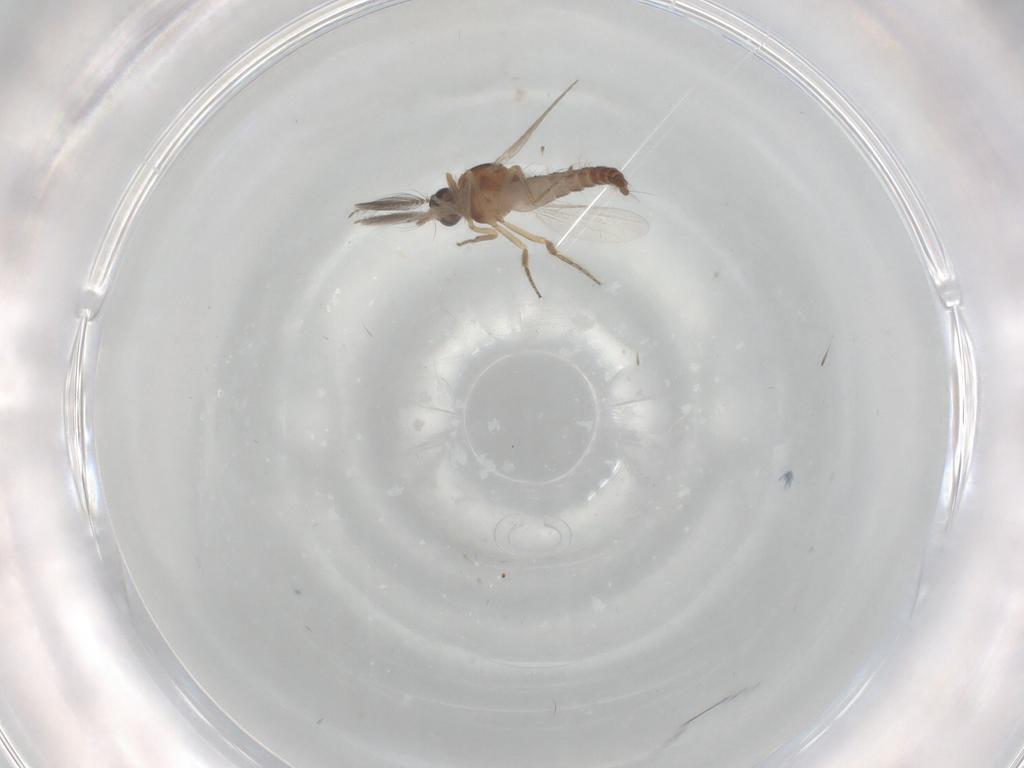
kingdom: Animalia
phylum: Arthropoda
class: Insecta
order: Diptera
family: Ceratopogonidae
